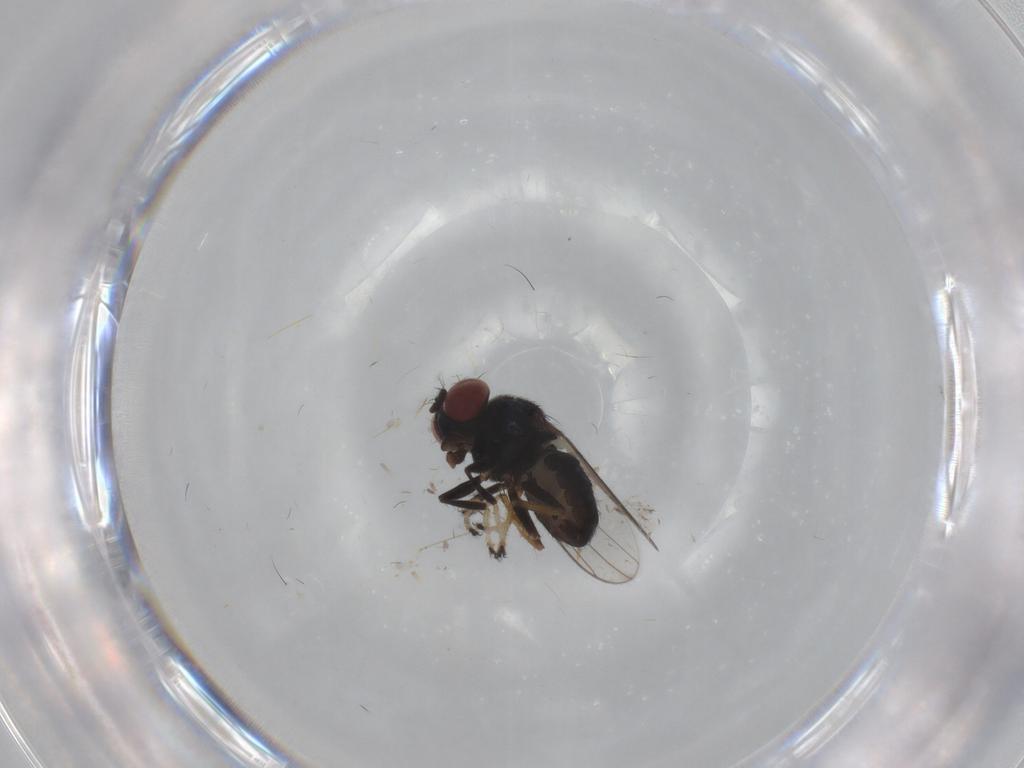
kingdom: Animalia
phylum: Arthropoda
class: Insecta
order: Diptera
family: Ephydridae
